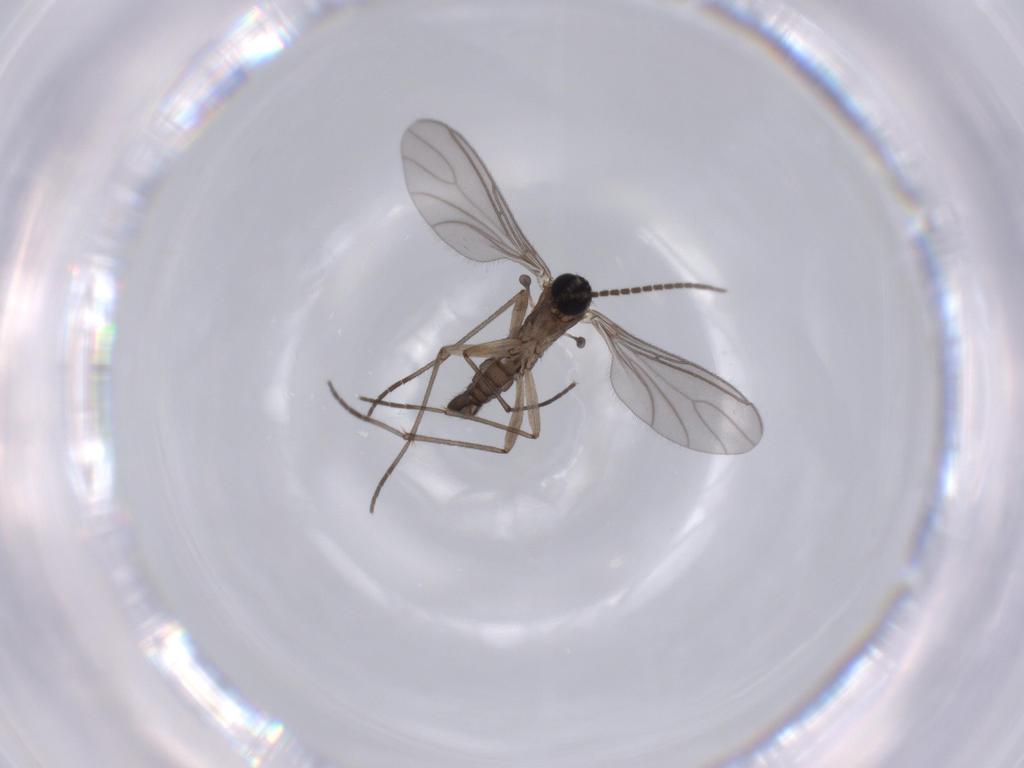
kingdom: Animalia
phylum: Arthropoda
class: Insecta
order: Diptera
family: Sciaridae
